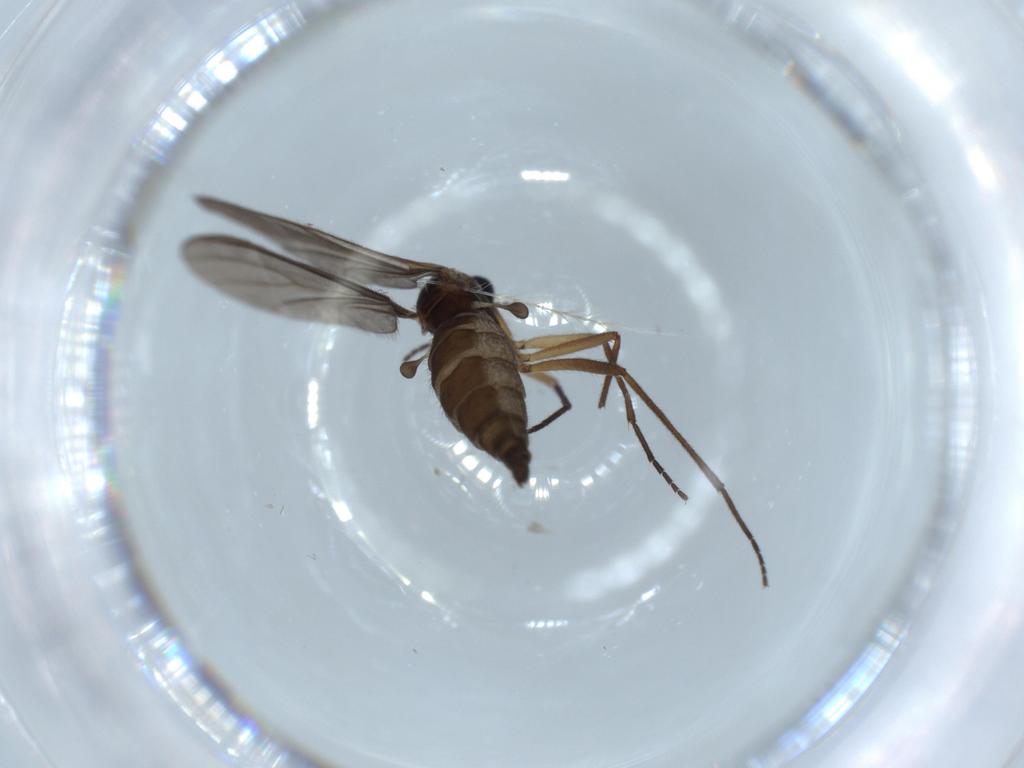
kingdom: Animalia
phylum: Arthropoda
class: Insecta
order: Diptera
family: Sciaridae
